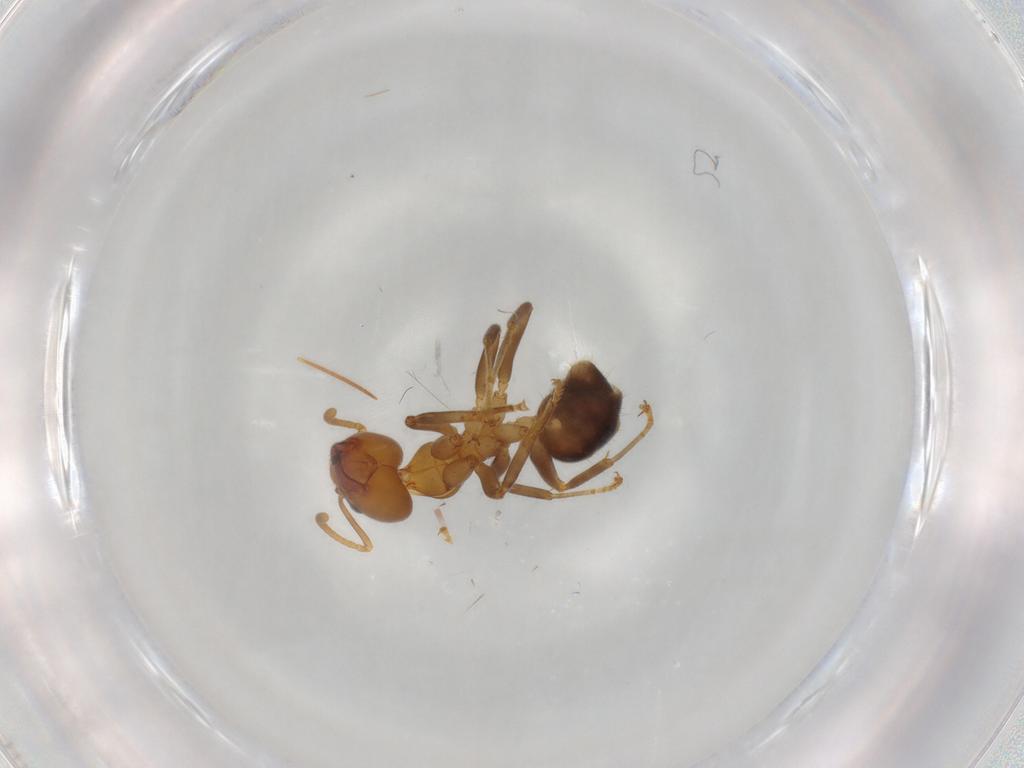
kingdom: Animalia
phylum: Arthropoda
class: Insecta
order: Hymenoptera
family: Formicidae
